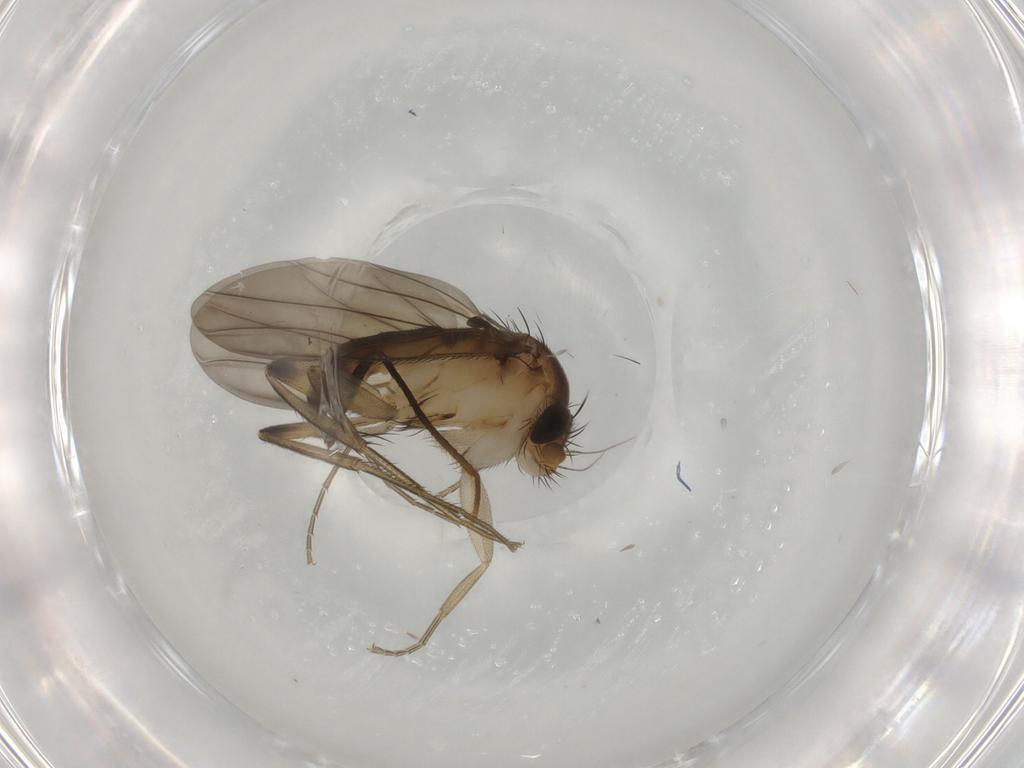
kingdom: Animalia
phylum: Arthropoda
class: Insecta
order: Diptera
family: Phoridae
